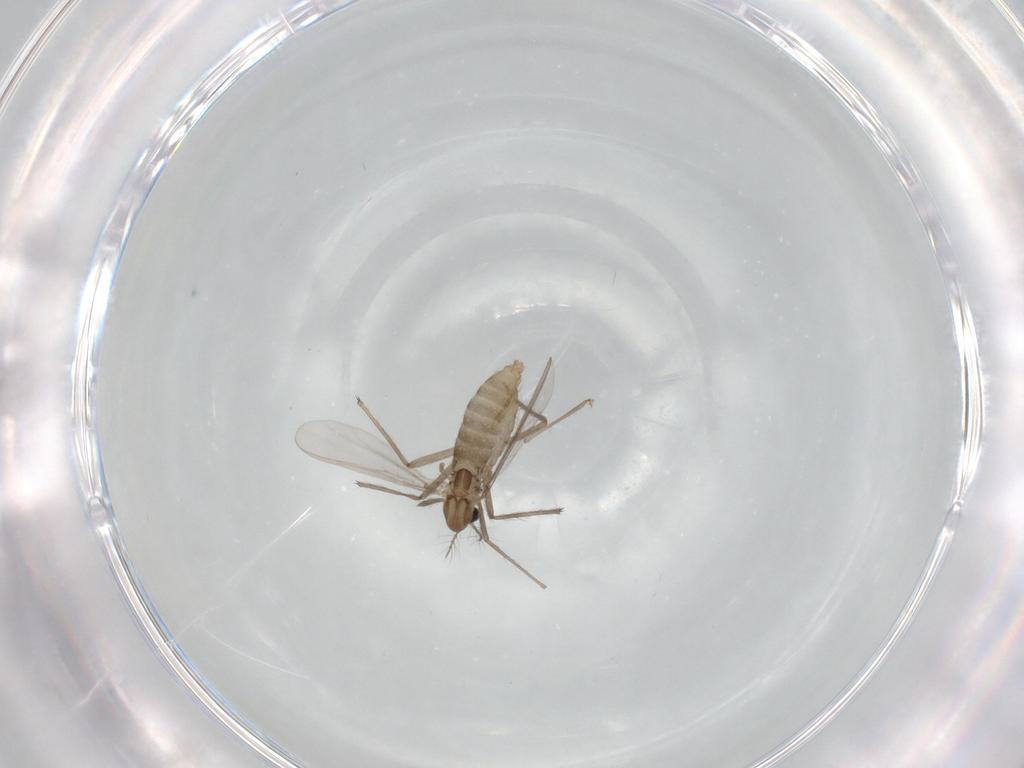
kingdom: Animalia
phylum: Arthropoda
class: Insecta
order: Diptera
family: Chironomidae
